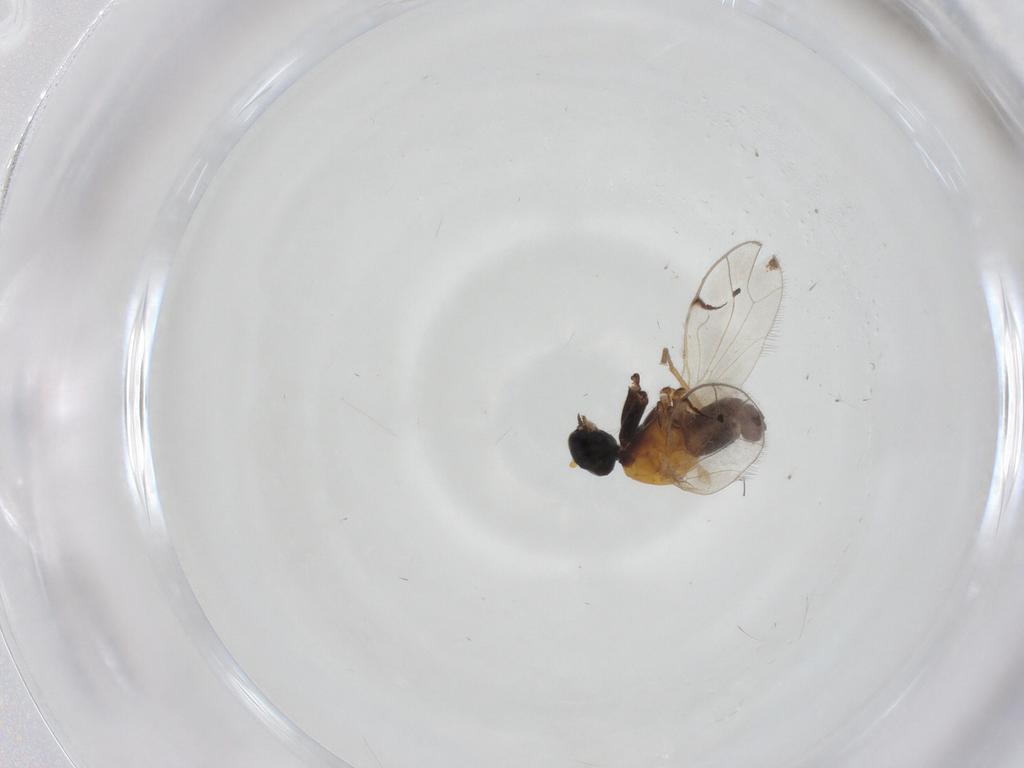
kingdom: Animalia
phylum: Arthropoda
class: Insecta
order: Diptera
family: Empididae
